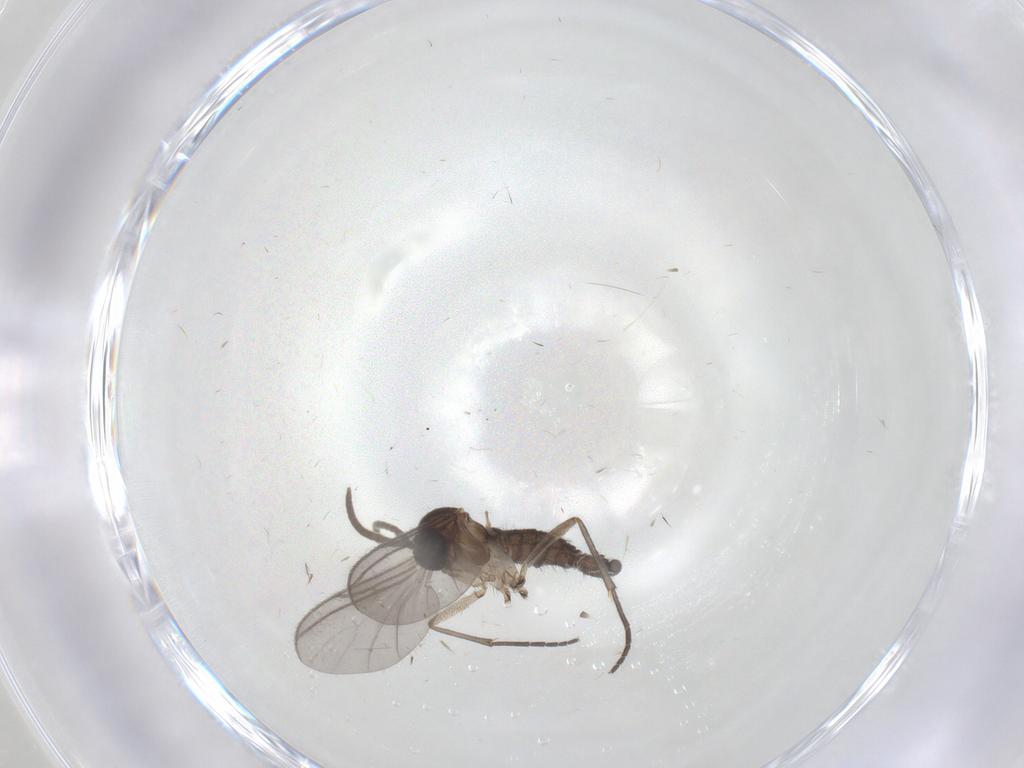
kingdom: Animalia
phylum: Arthropoda
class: Insecta
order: Diptera
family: Limoniidae
